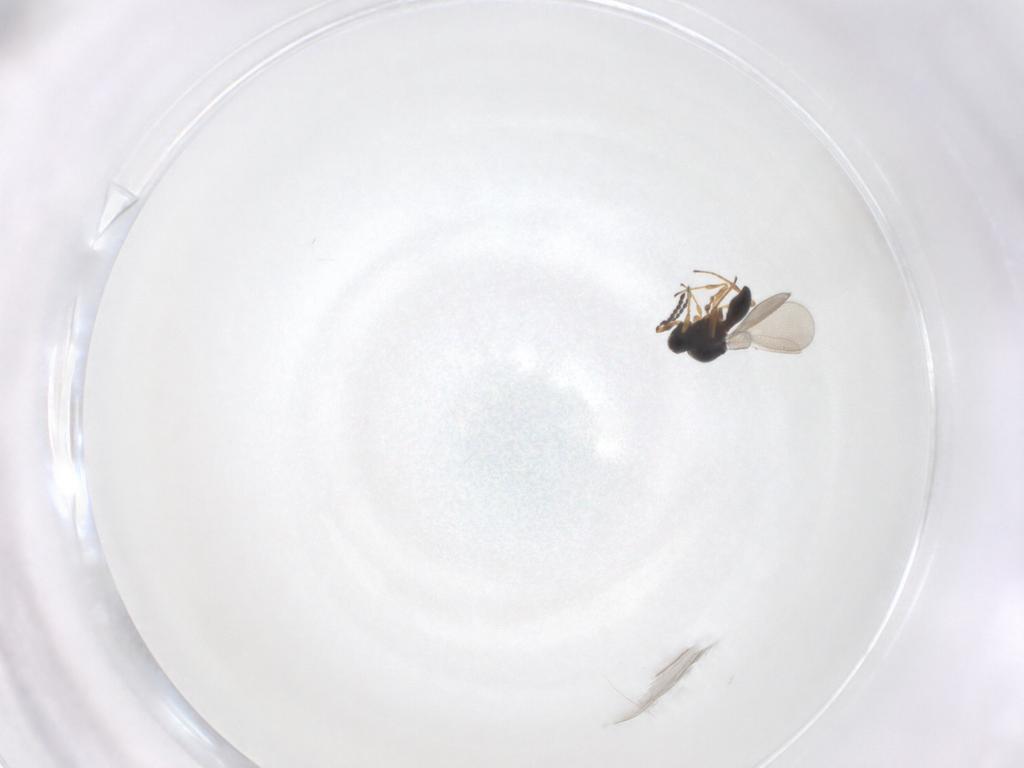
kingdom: Animalia
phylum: Arthropoda
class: Insecta
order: Hymenoptera
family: Platygastridae
